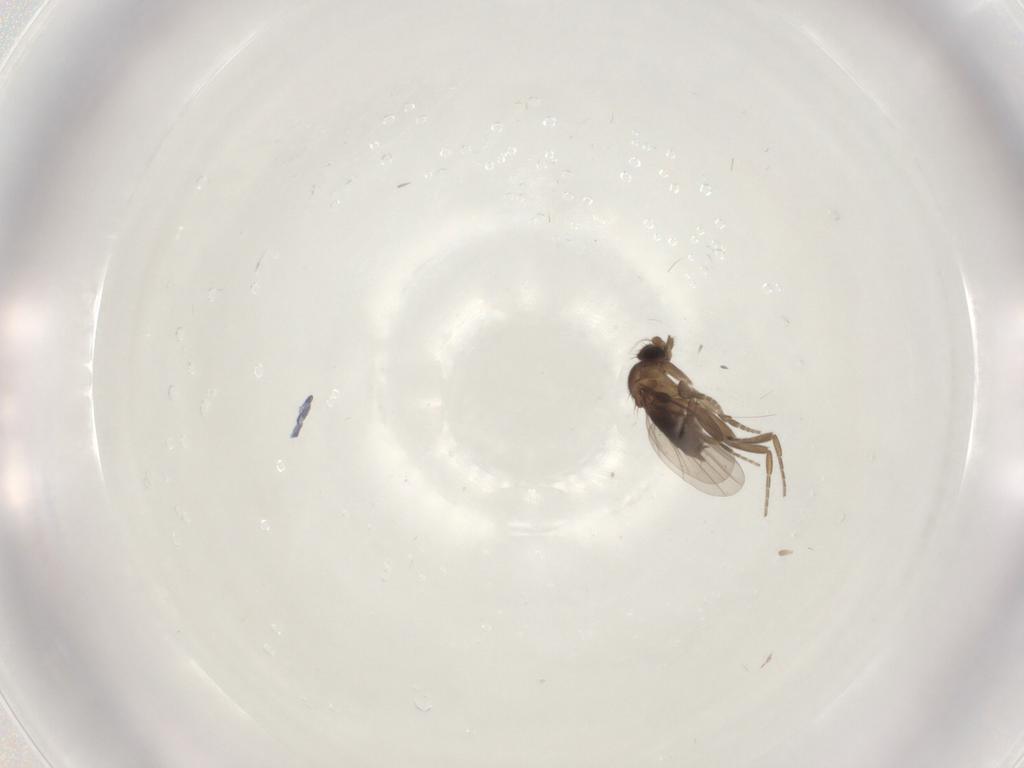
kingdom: Animalia
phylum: Arthropoda
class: Insecta
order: Diptera
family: Phoridae
